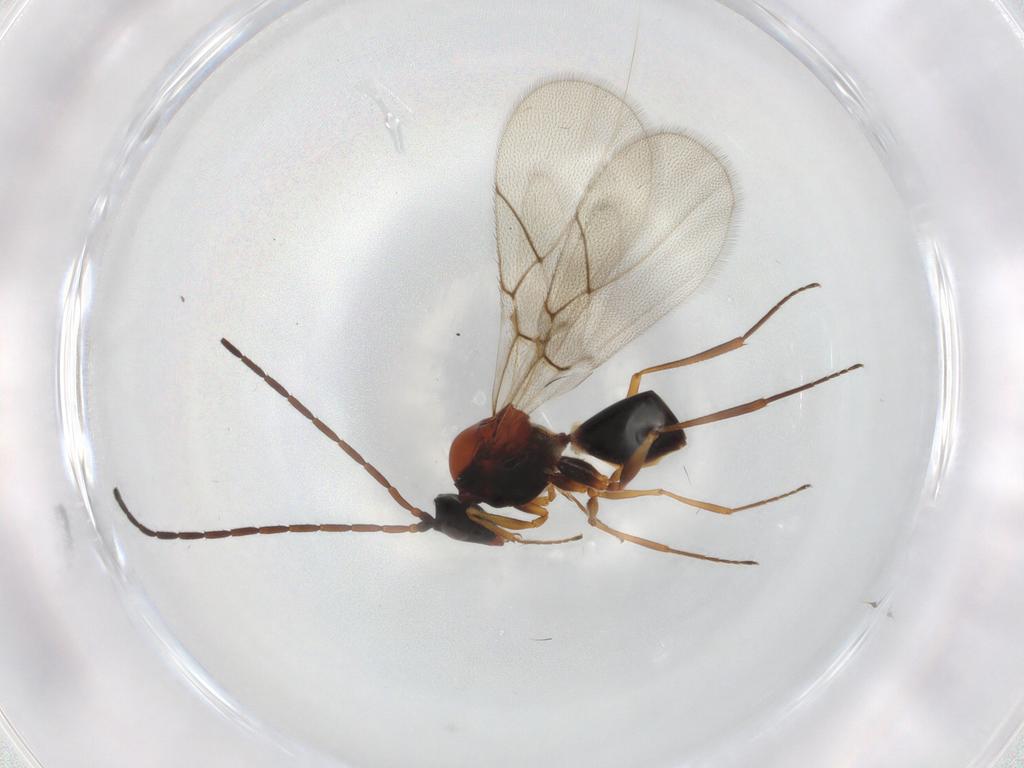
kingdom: Animalia
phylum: Arthropoda
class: Insecta
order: Hymenoptera
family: Figitidae
